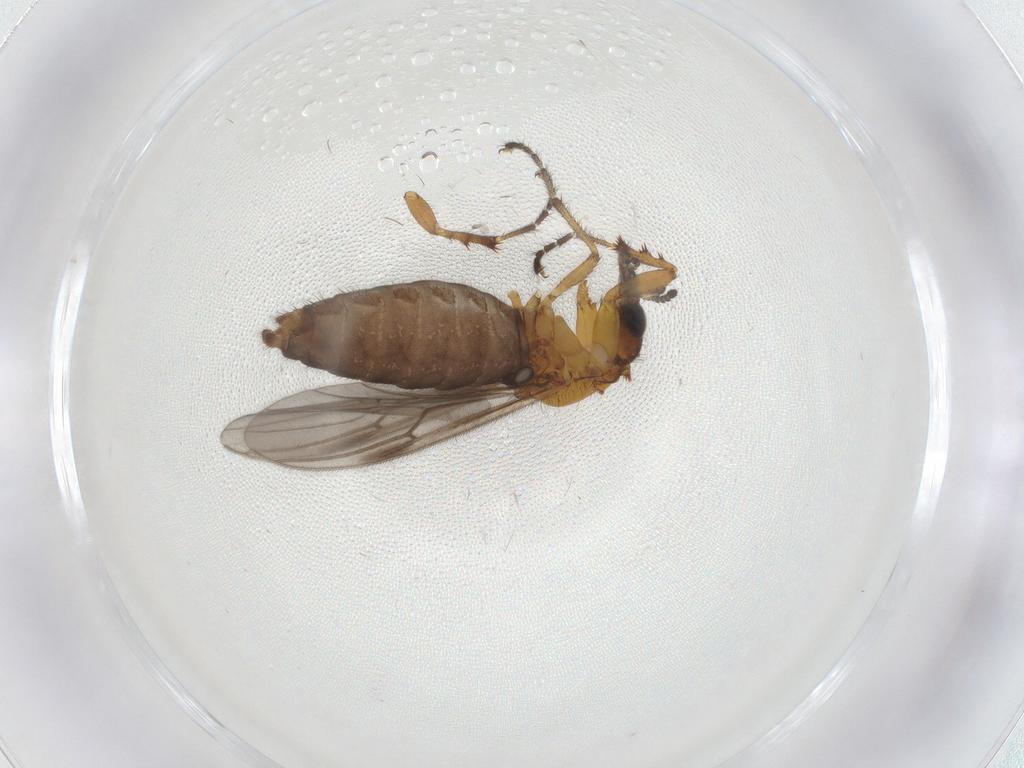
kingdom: Animalia
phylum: Arthropoda
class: Insecta
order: Diptera
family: Bibionidae
